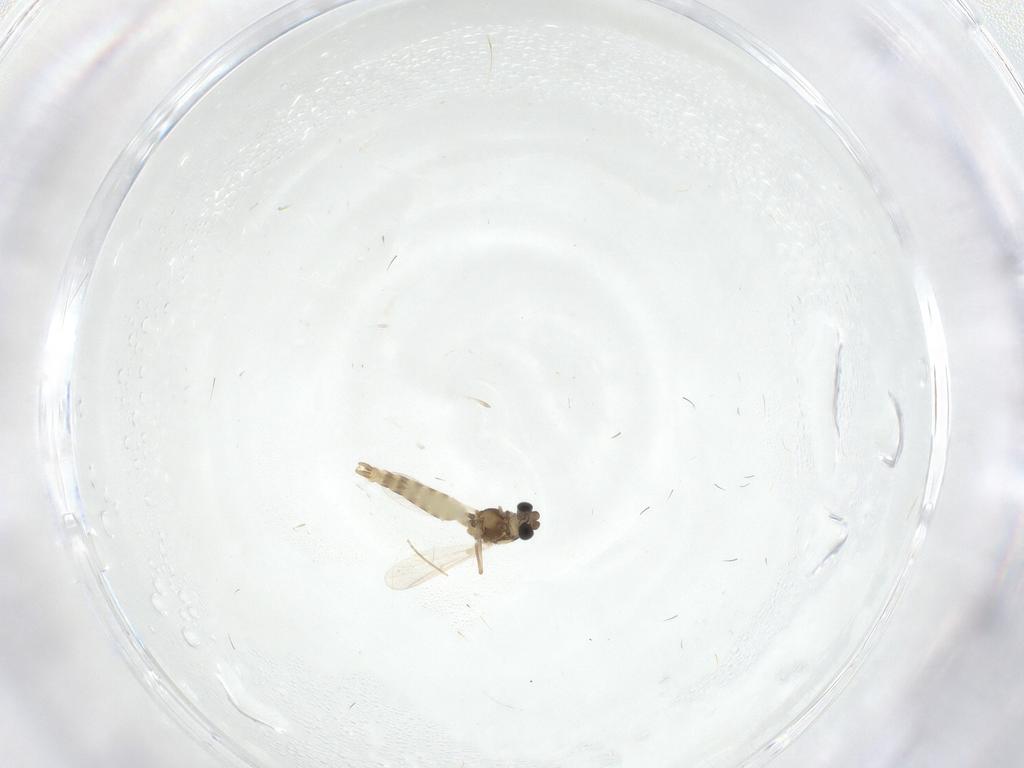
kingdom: Animalia
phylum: Arthropoda
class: Insecta
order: Diptera
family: Chironomidae
